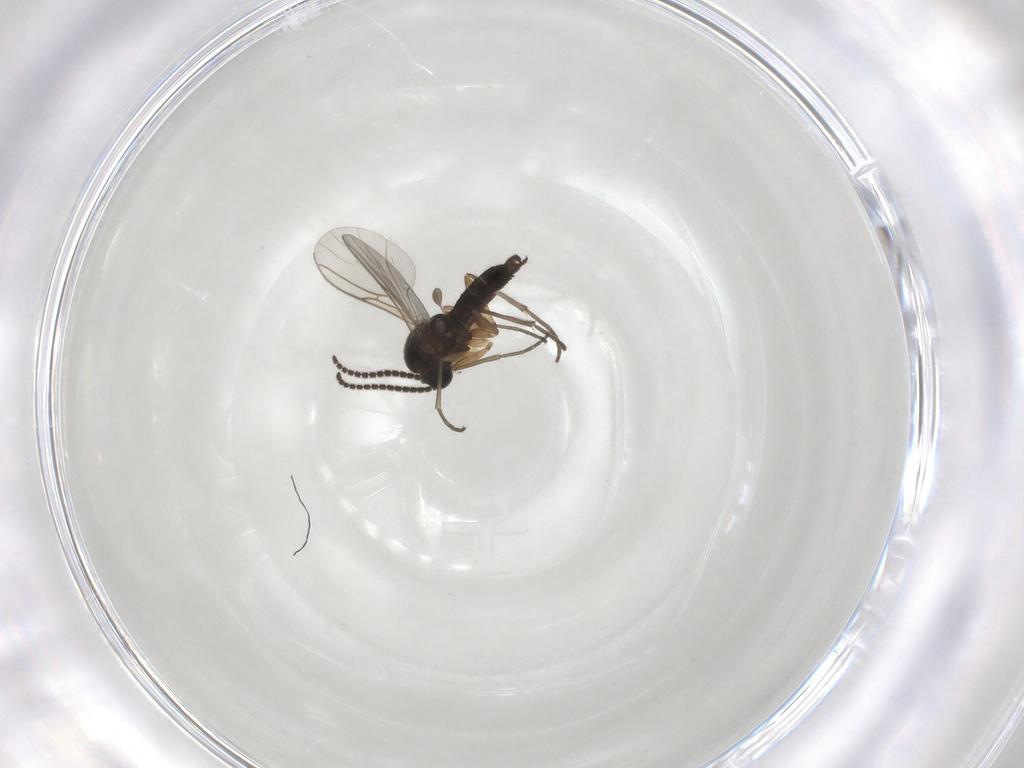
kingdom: Animalia
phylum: Arthropoda
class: Insecta
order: Diptera
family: Sciaridae
